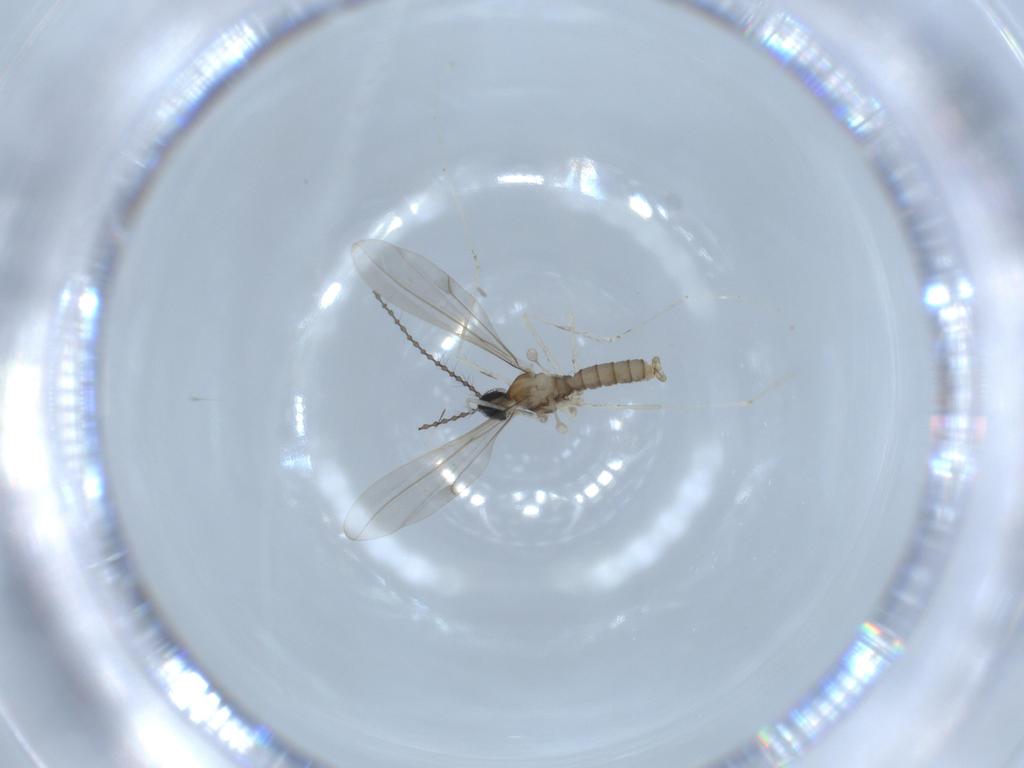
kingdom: Animalia
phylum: Arthropoda
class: Insecta
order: Diptera
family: Cecidomyiidae
